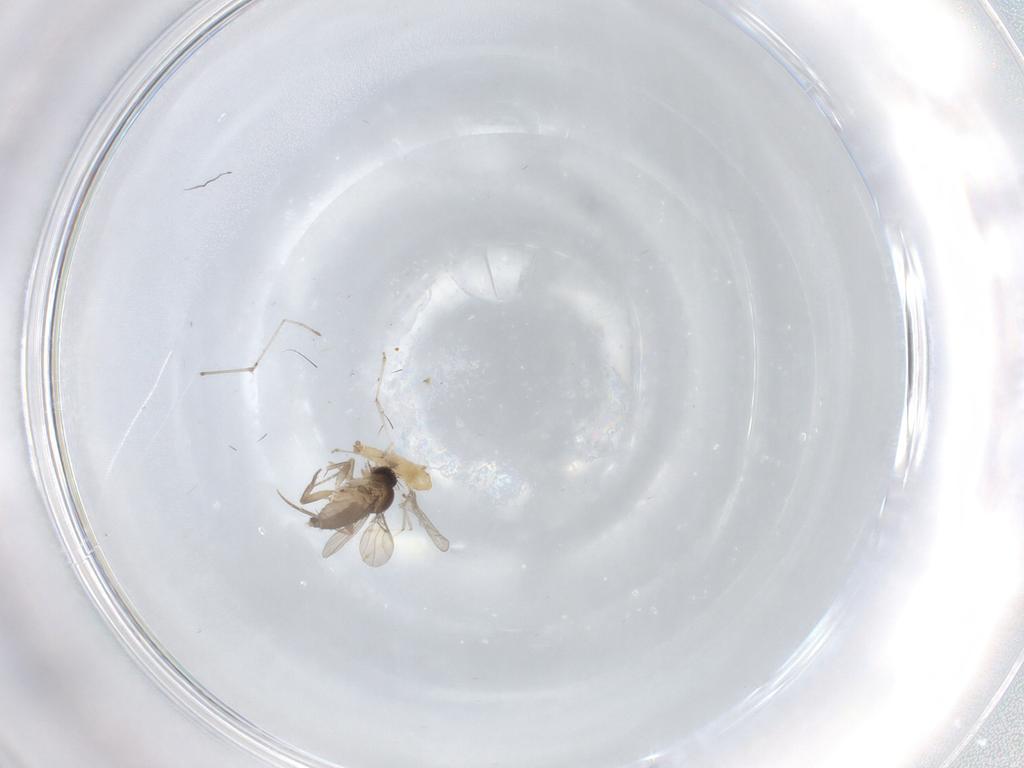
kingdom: Animalia
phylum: Arthropoda
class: Insecta
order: Diptera
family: Phoridae
